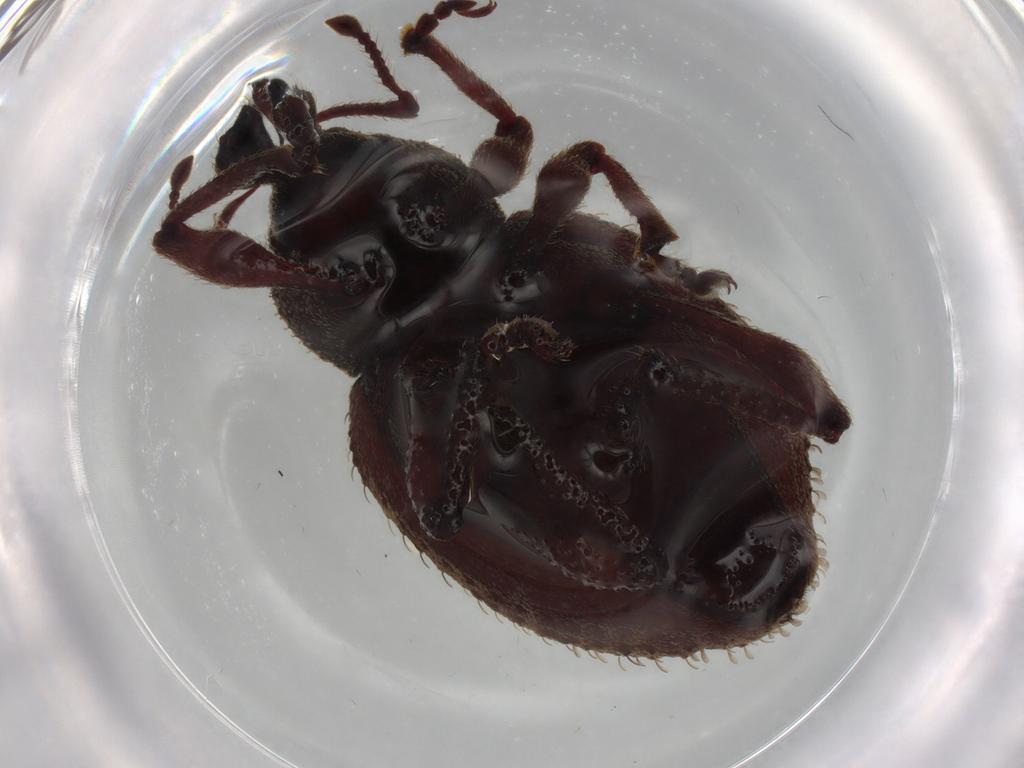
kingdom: Animalia
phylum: Arthropoda
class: Insecta
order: Coleoptera
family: Curculionidae
